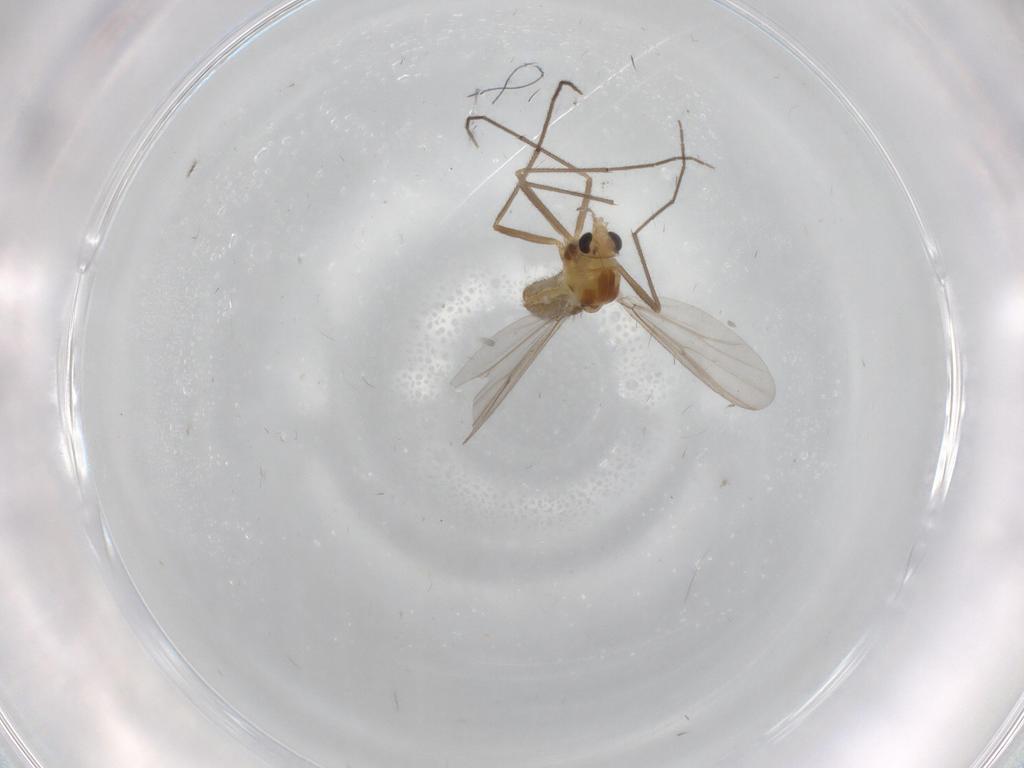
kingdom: Animalia
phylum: Arthropoda
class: Insecta
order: Diptera
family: Chironomidae
